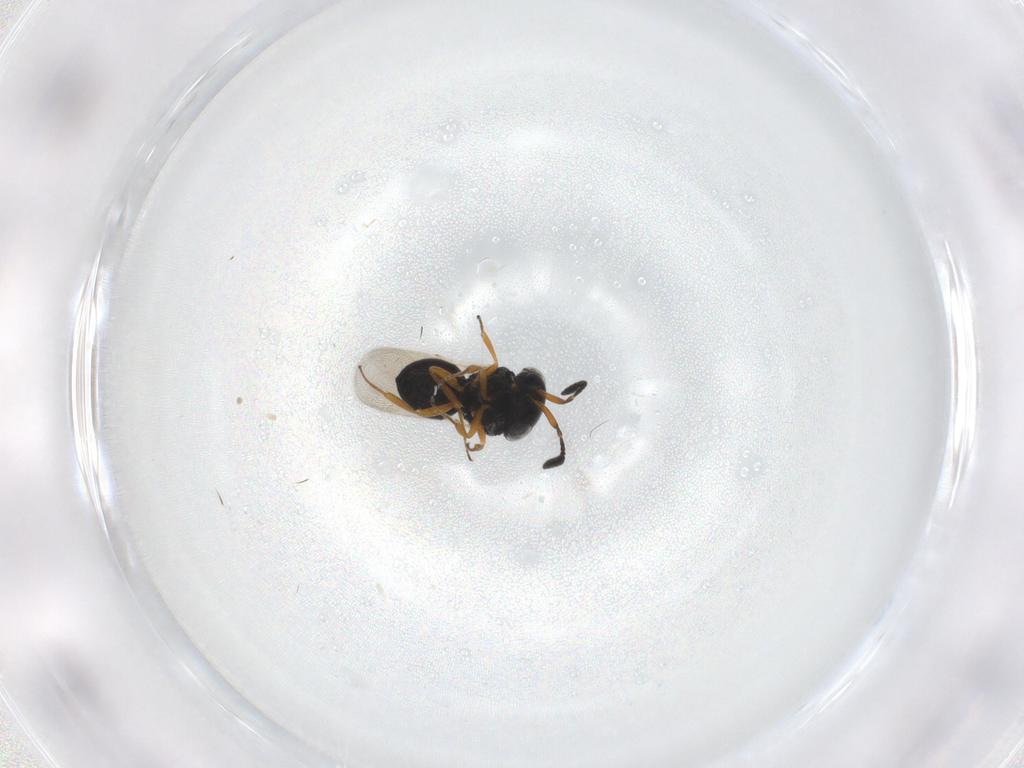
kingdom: Animalia
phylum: Arthropoda
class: Insecta
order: Hymenoptera
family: Scelionidae
